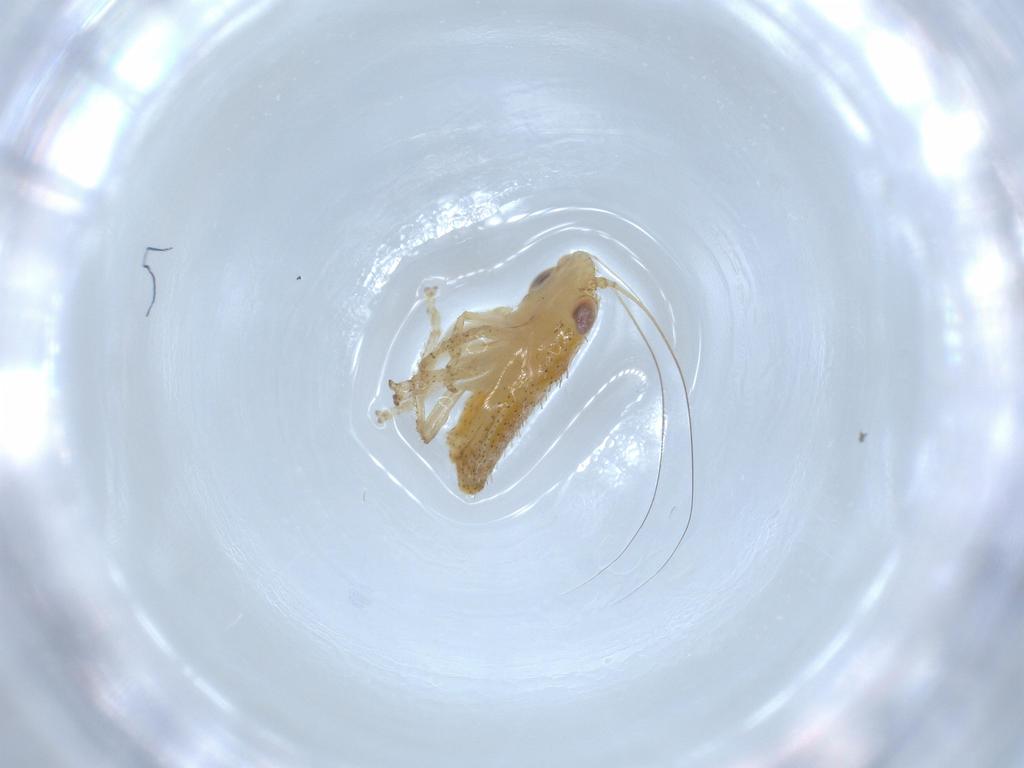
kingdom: Animalia
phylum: Arthropoda
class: Insecta
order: Hemiptera
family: Cicadellidae
